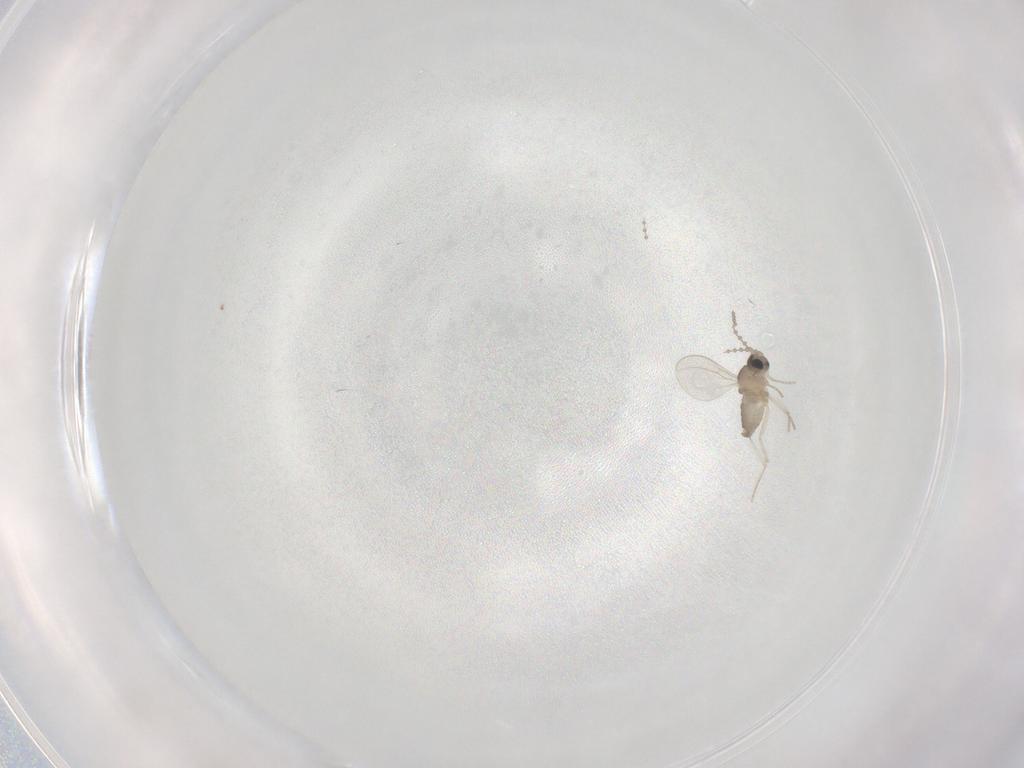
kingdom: Animalia
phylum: Arthropoda
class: Insecta
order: Diptera
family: Cecidomyiidae
